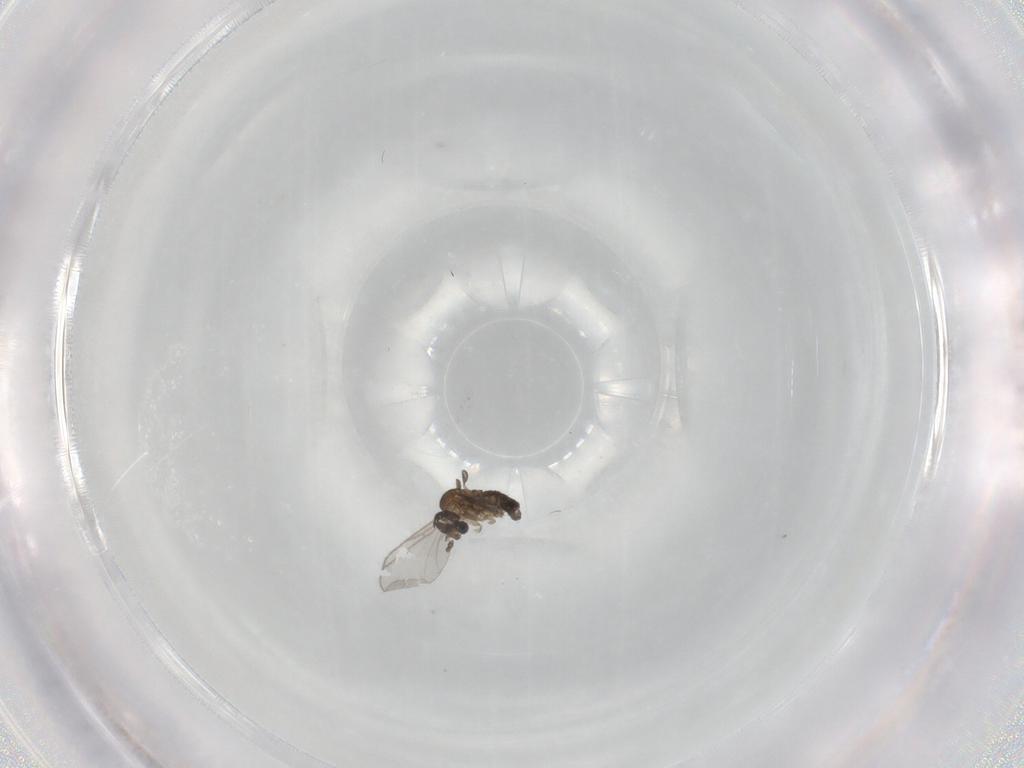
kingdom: Animalia
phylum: Arthropoda
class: Insecta
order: Diptera
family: Sciaridae
